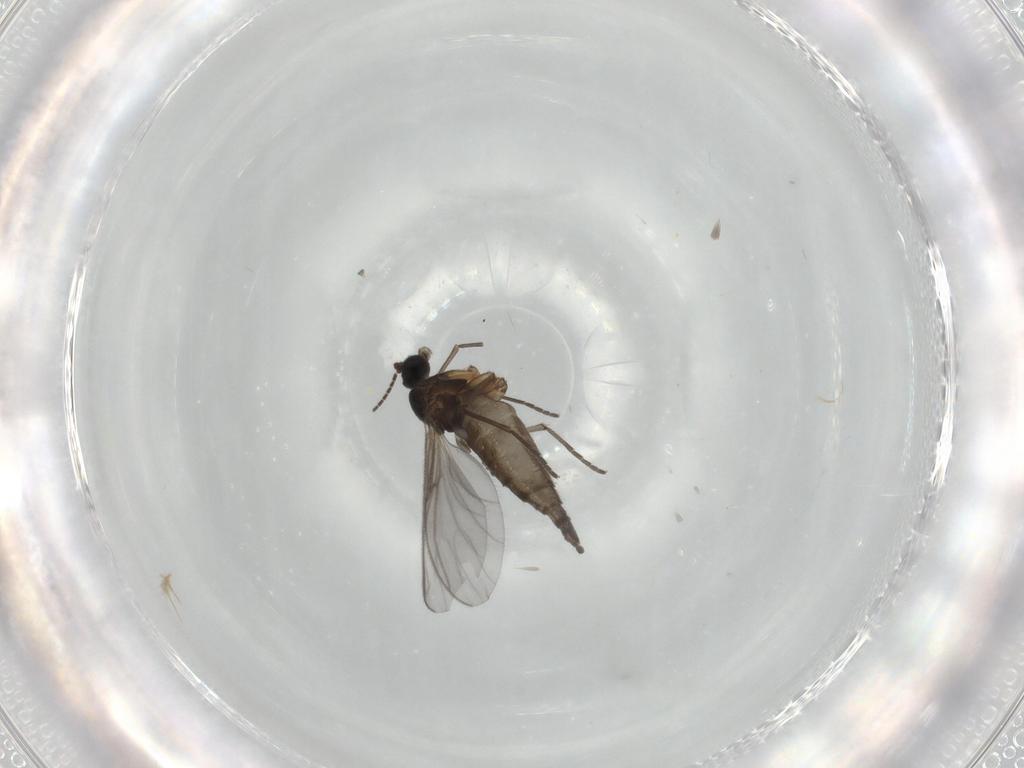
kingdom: Animalia
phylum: Arthropoda
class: Insecta
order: Diptera
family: Sciaridae
